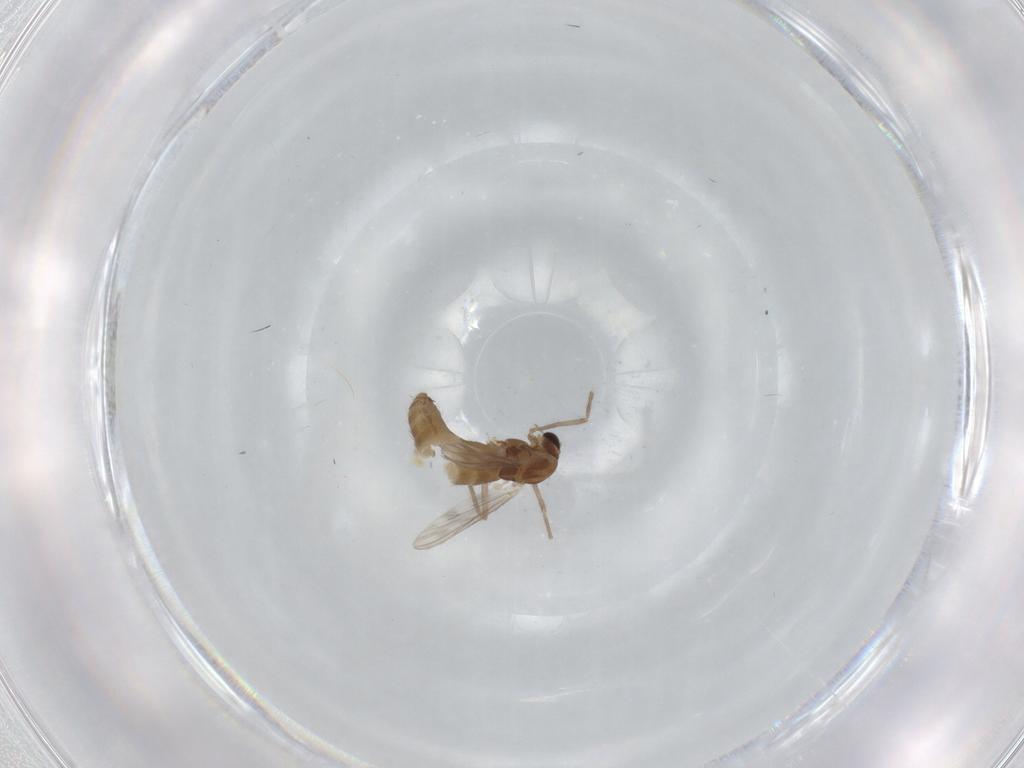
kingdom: Animalia
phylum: Arthropoda
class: Insecta
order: Diptera
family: Chironomidae
